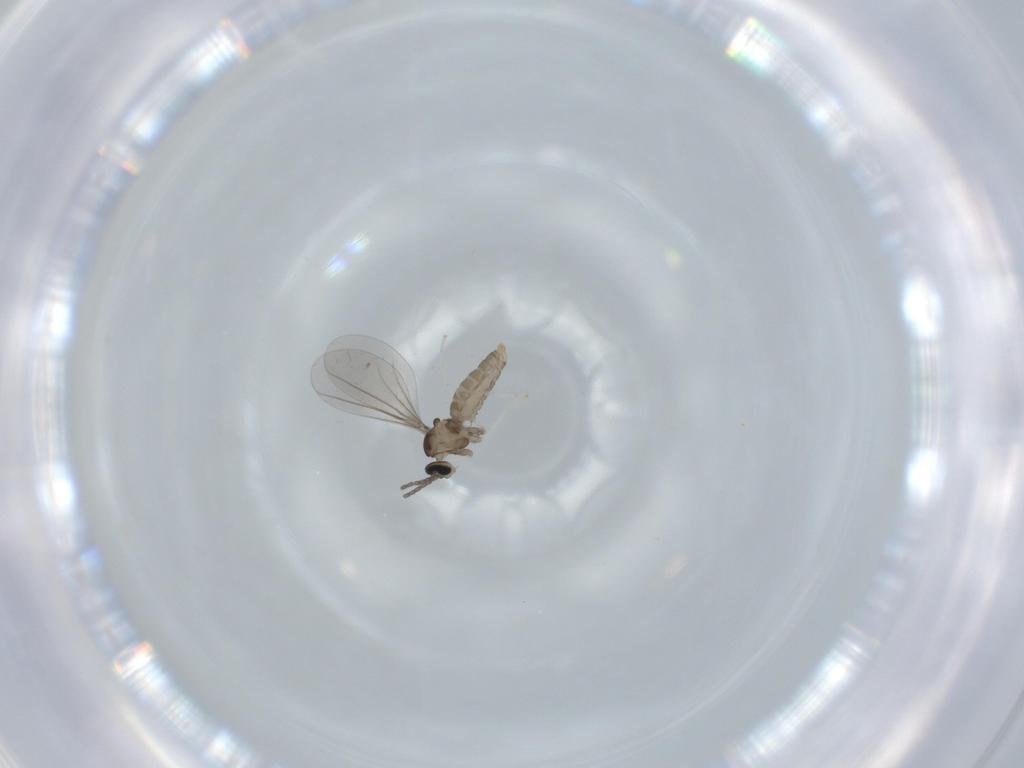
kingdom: Animalia
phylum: Arthropoda
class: Insecta
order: Diptera
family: Cecidomyiidae
